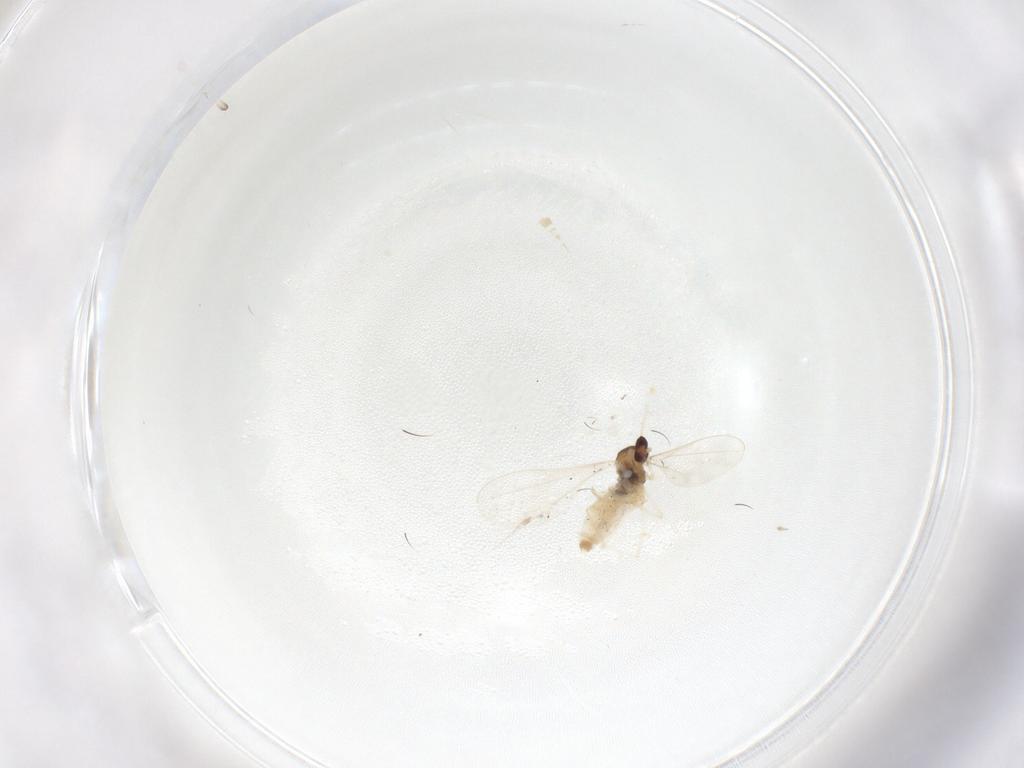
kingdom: Animalia
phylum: Arthropoda
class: Insecta
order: Diptera
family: Cecidomyiidae
